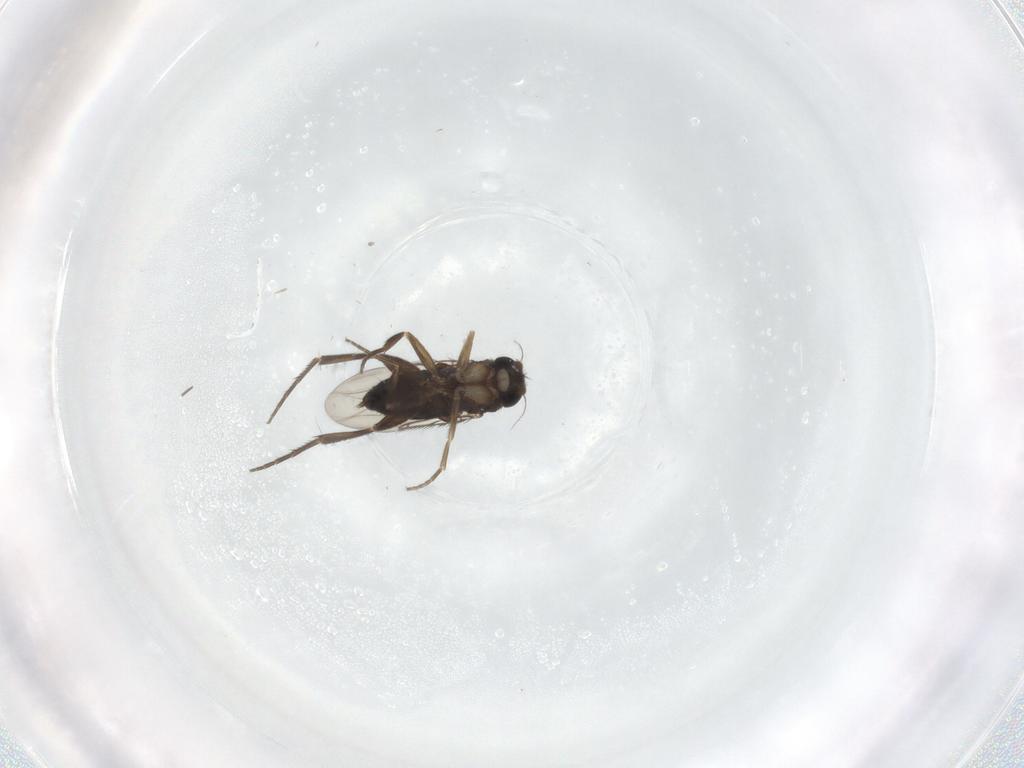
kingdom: Animalia
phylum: Arthropoda
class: Insecta
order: Diptera
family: Phoridae
